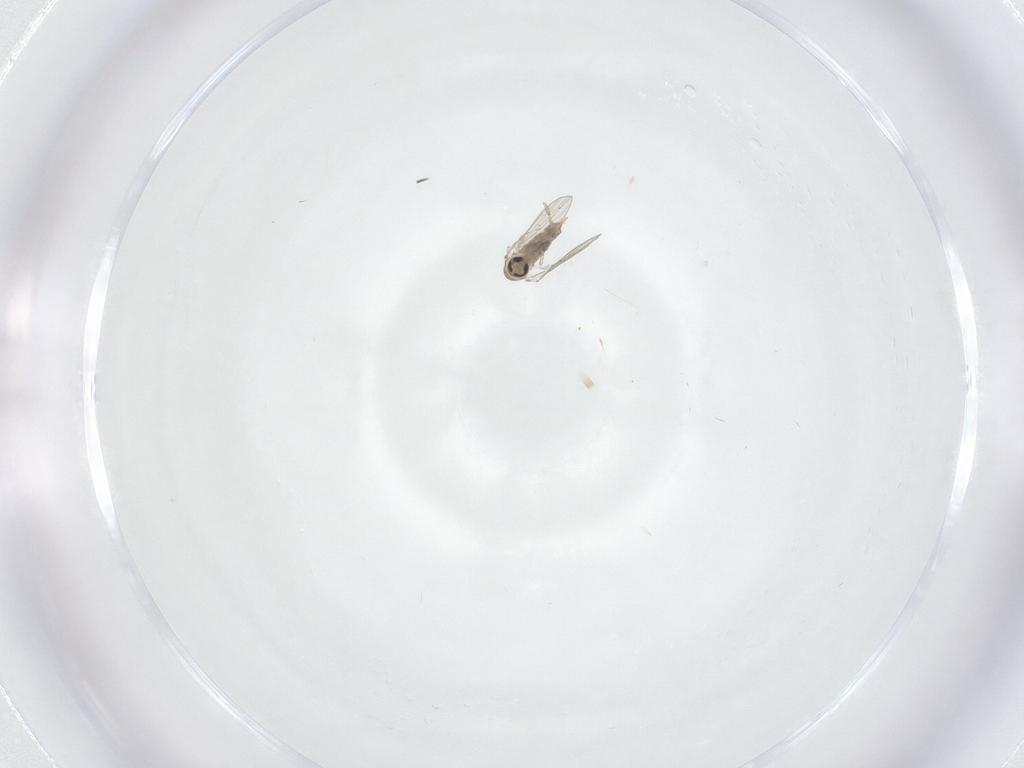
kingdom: Animalia
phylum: Arthropoda
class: Insecta
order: Diptera
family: Psychodidae
